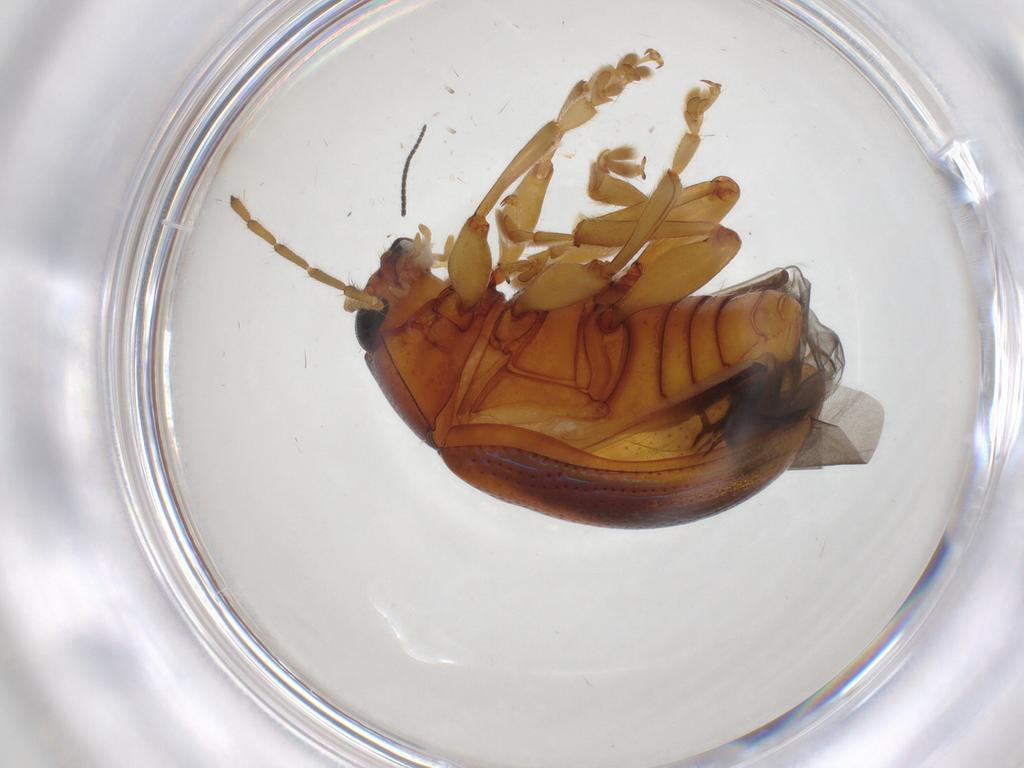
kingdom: Animalia
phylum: Arthropoda
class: Insecta
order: Coleoptera
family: Chrysomelidae
